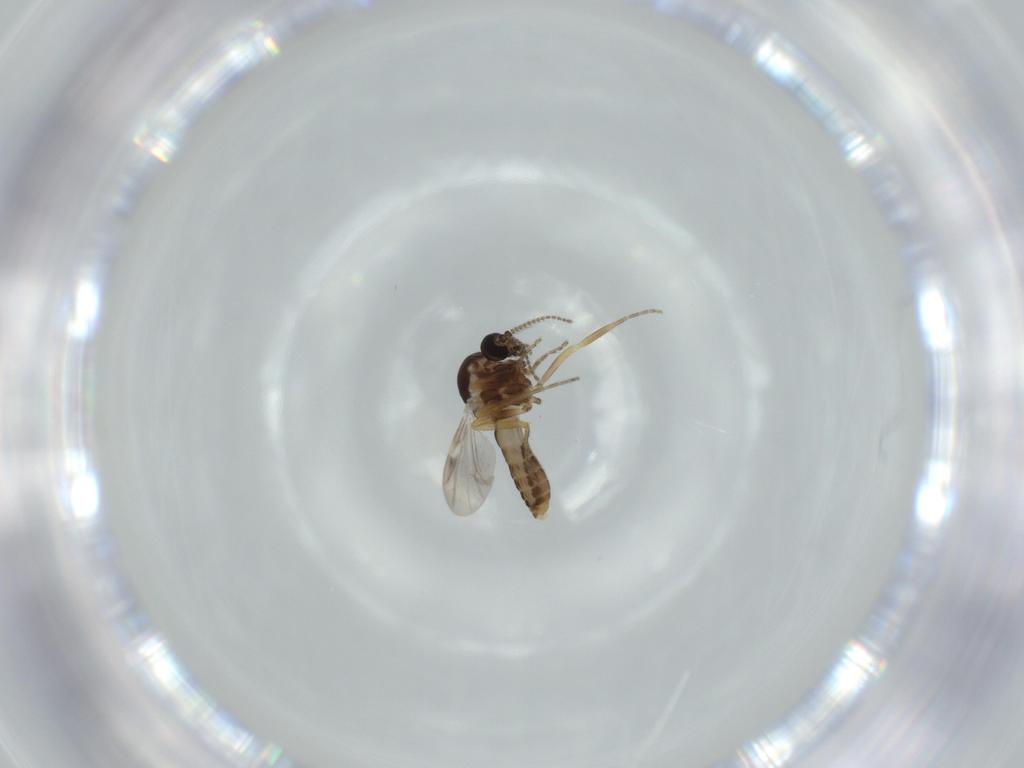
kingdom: Animalia
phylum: Arthropoda
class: Insecta
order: Diptera
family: Ceratopogonidae
